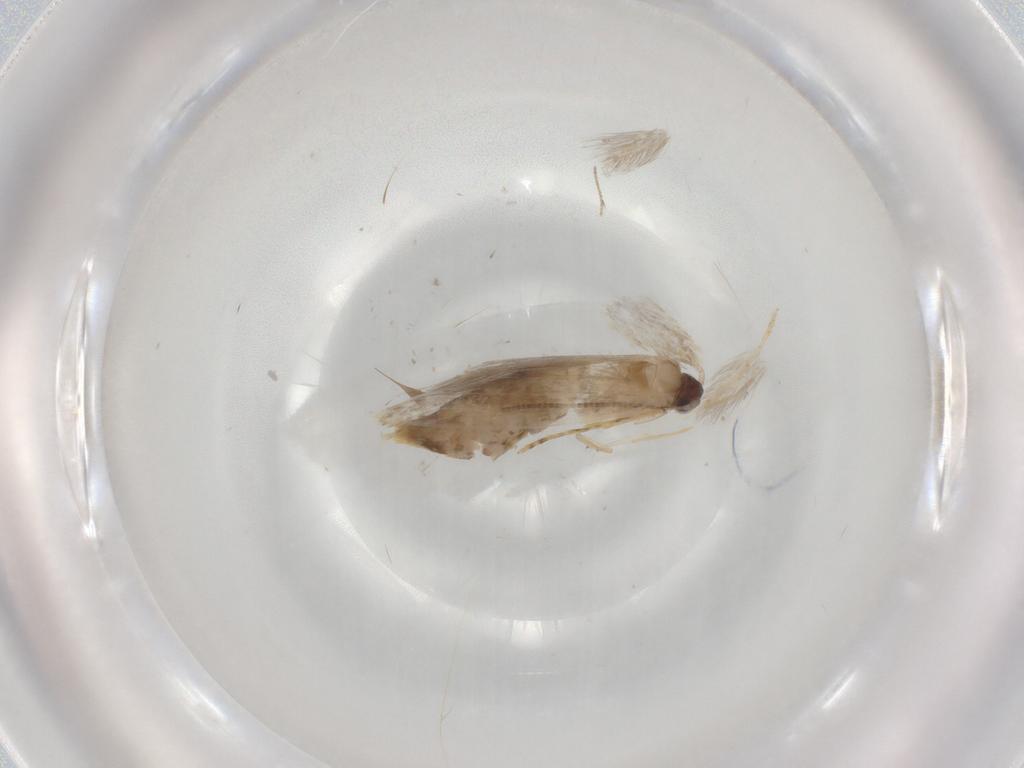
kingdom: Animalia
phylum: Arthropoda
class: Insecta
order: Lepidoptera
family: Tineidae
